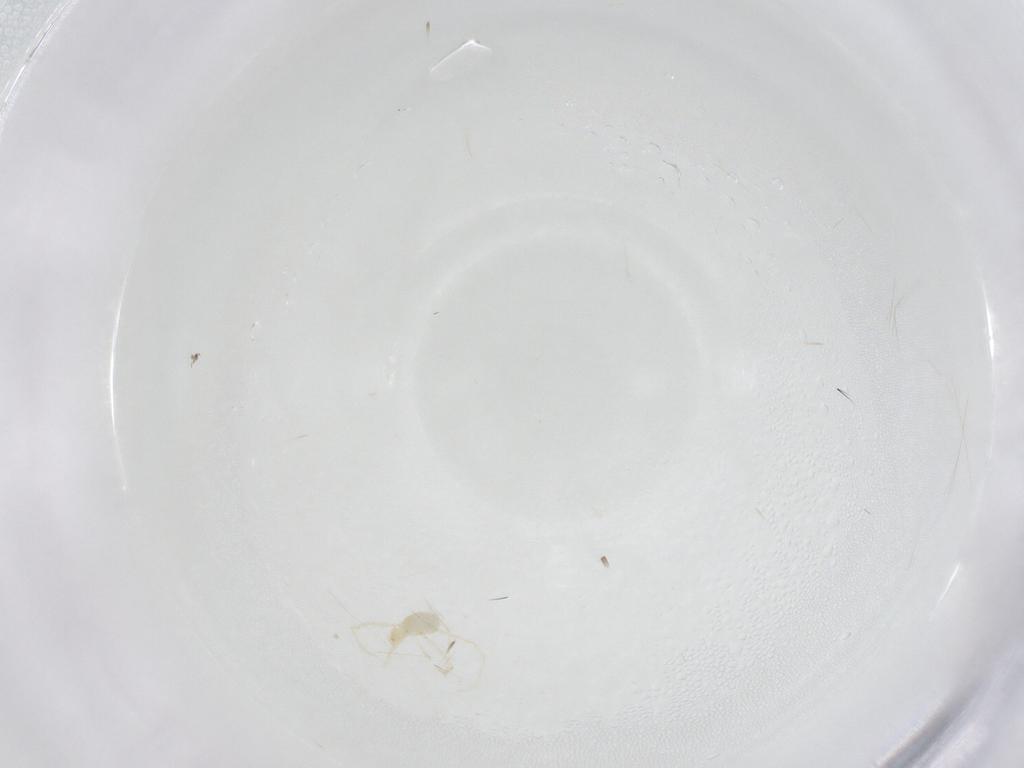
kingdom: Animalia
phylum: Arthropoda
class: Arachnida
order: Trombidiformes
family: Erythraeidae
